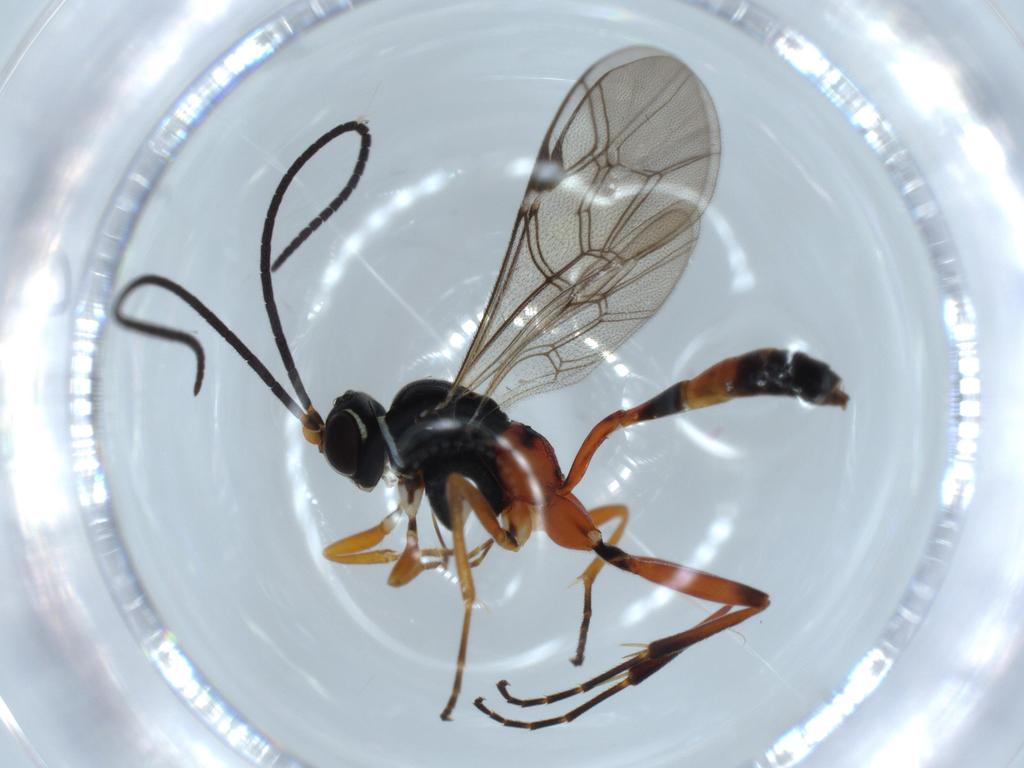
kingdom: Animalia
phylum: Arthropoda
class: Insecta
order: Hymenoptera
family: Ichneumonidae
